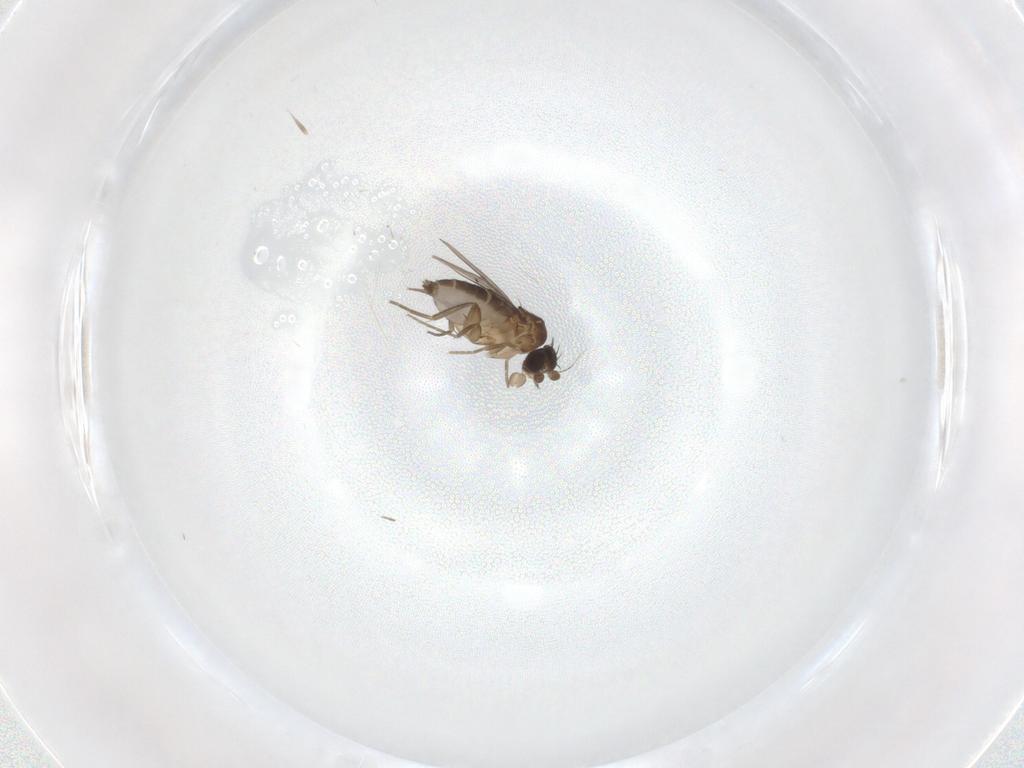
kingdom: Animalia
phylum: Arthropoda
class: Insecta
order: Diptera
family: Phoridae
